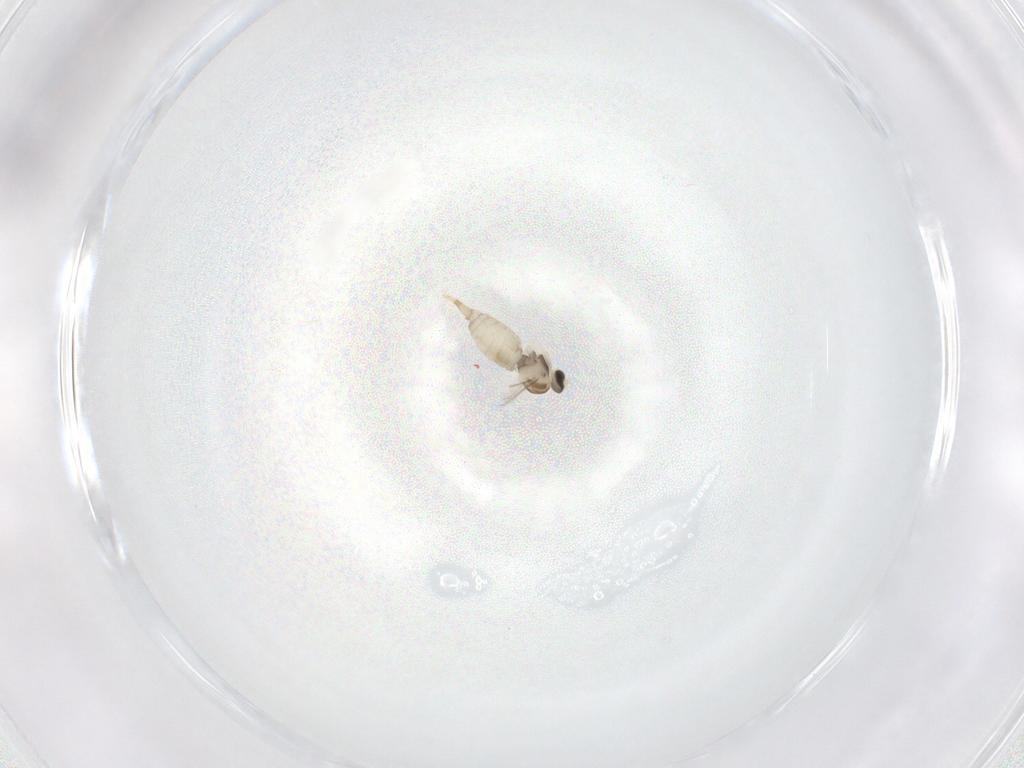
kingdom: Animalia
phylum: Arthropoda
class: Insecta
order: Diptera
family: Cecidomyiidae
